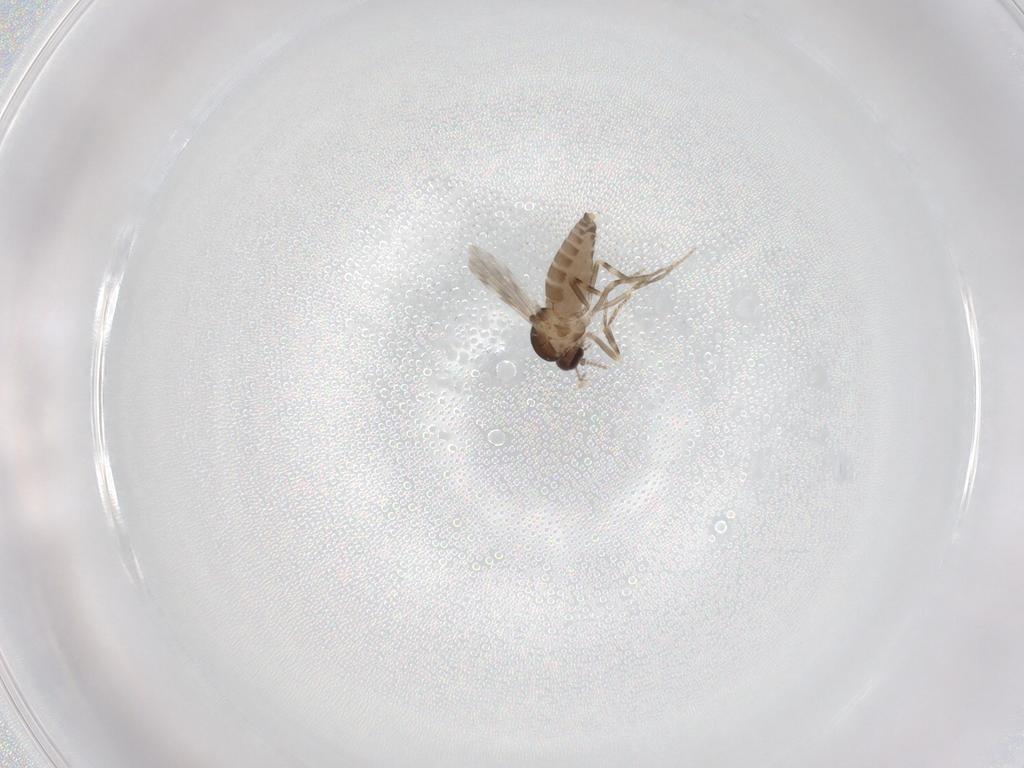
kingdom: Animalia
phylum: Arthropoda
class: Insecta
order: Diptera
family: Ceratopogonidae
